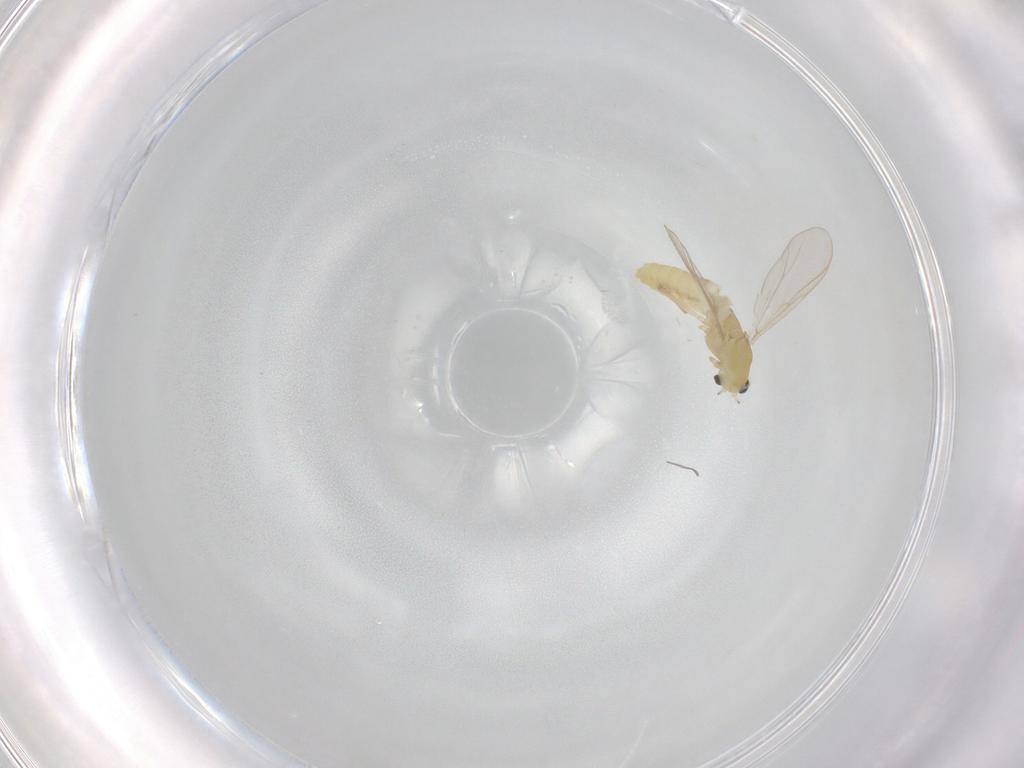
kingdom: Animalia
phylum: Arthropoda
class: Insecta
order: Diptera
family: Chironomidae
